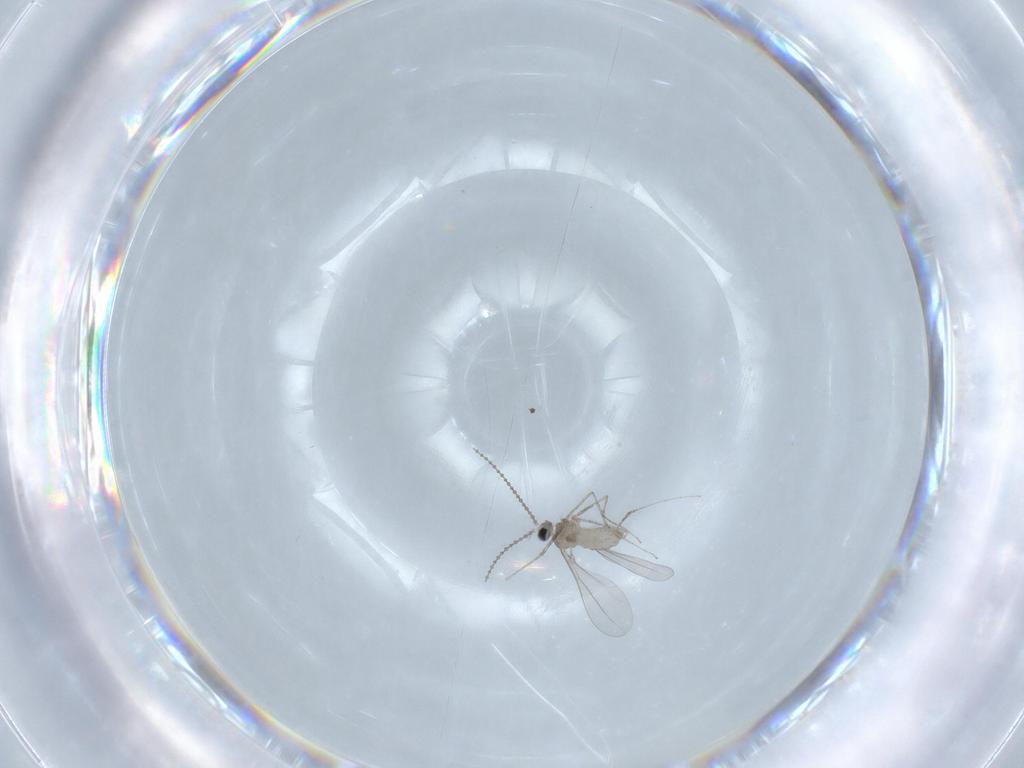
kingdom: Animalia
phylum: Arthropoda
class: Insecta
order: Diptera
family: Cecidomyiidae
